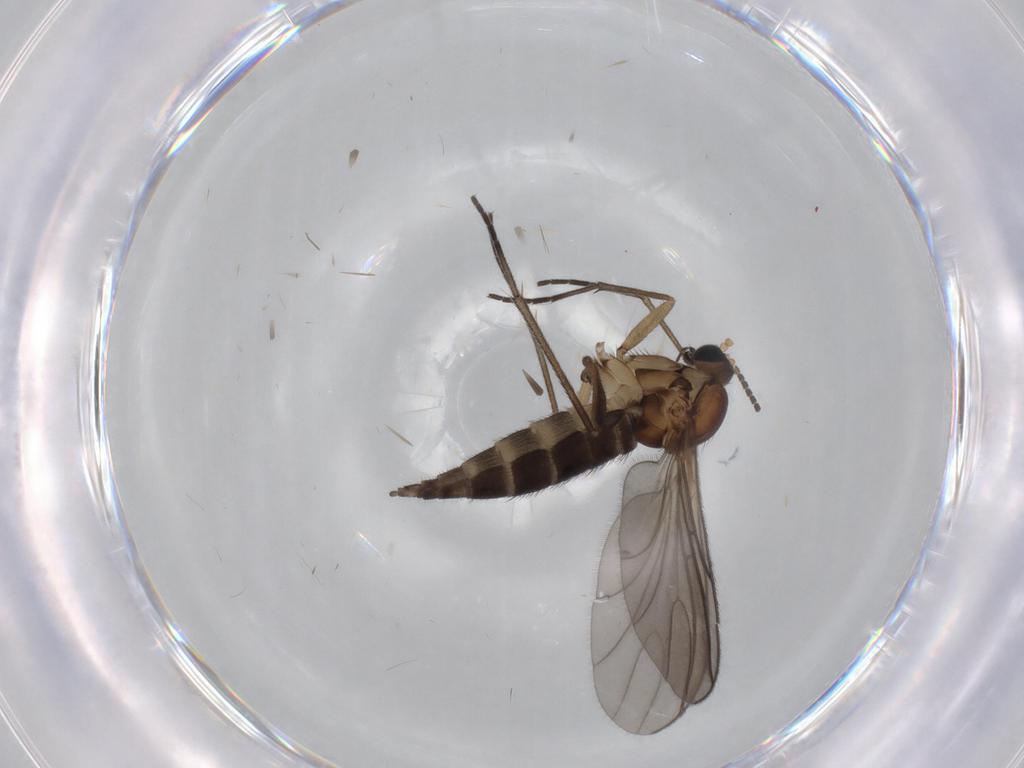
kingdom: Animalia
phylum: Arthropoda
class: Insecta
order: Diptera
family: Sciaridae
